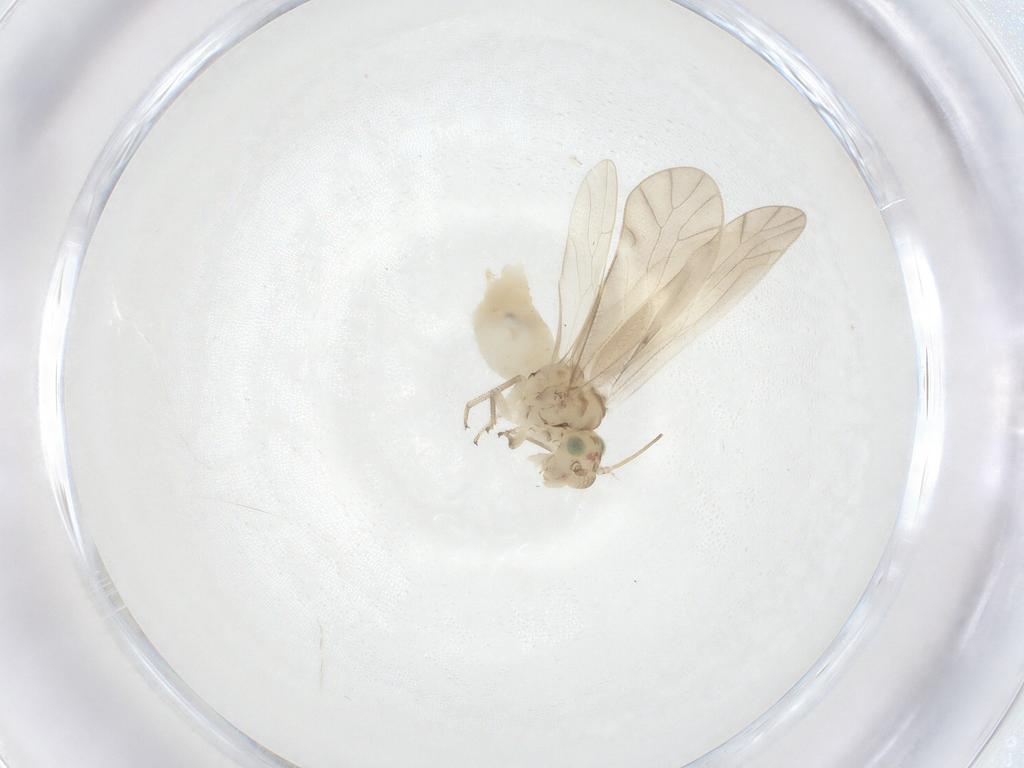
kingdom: Animalia
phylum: Arthropoda
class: Insecta
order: Psocodea
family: Caeciliusidae
